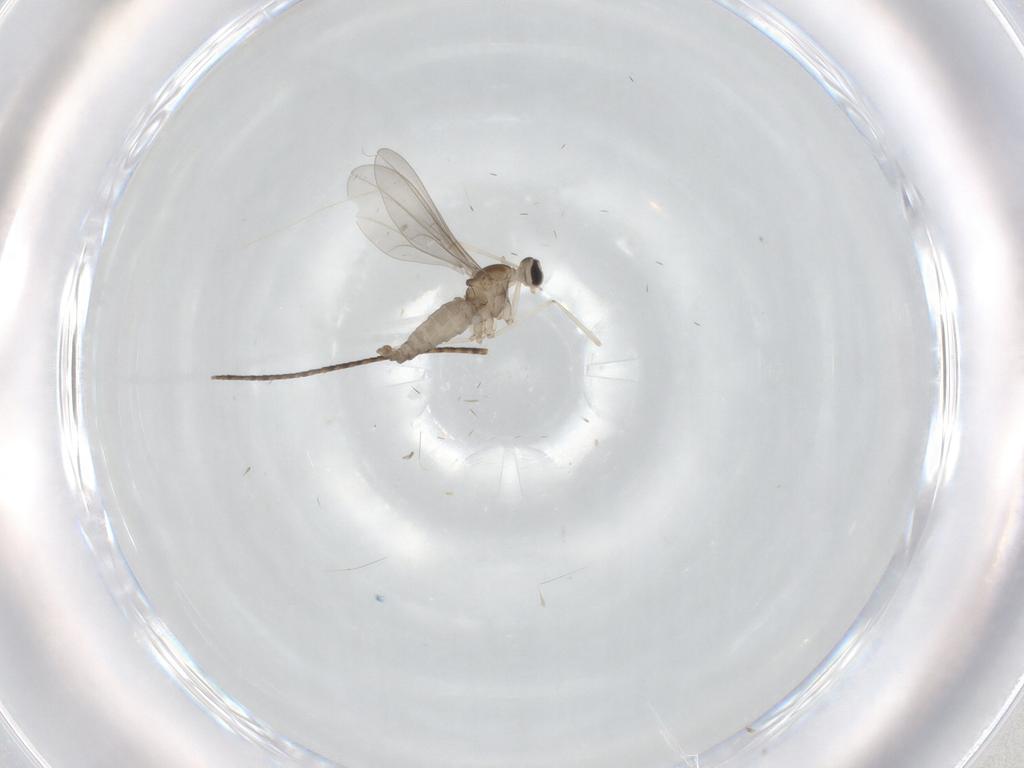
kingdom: Animalia
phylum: Arthropoda
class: Insecta
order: Diptera
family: Cecidomyiidae
